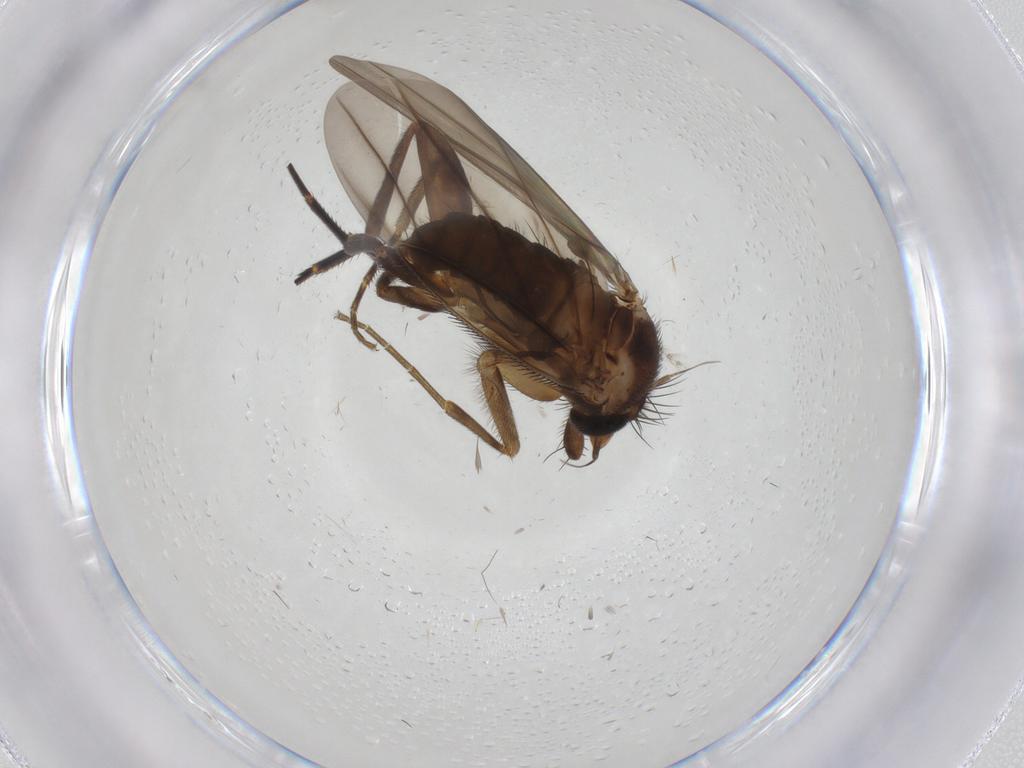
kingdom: Animalia
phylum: Arthropoda
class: Insecta
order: Diptera
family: Phoridae
